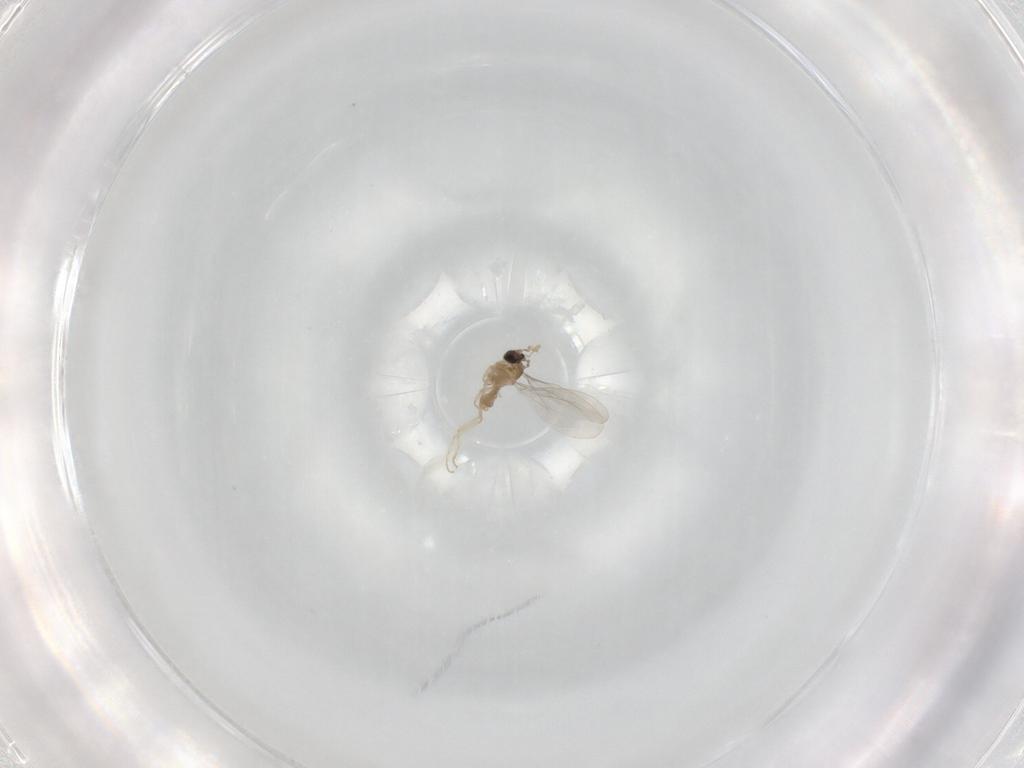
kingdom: Animalia
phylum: Arthropoda
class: Insecta
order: Diptera
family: Sciaridae
